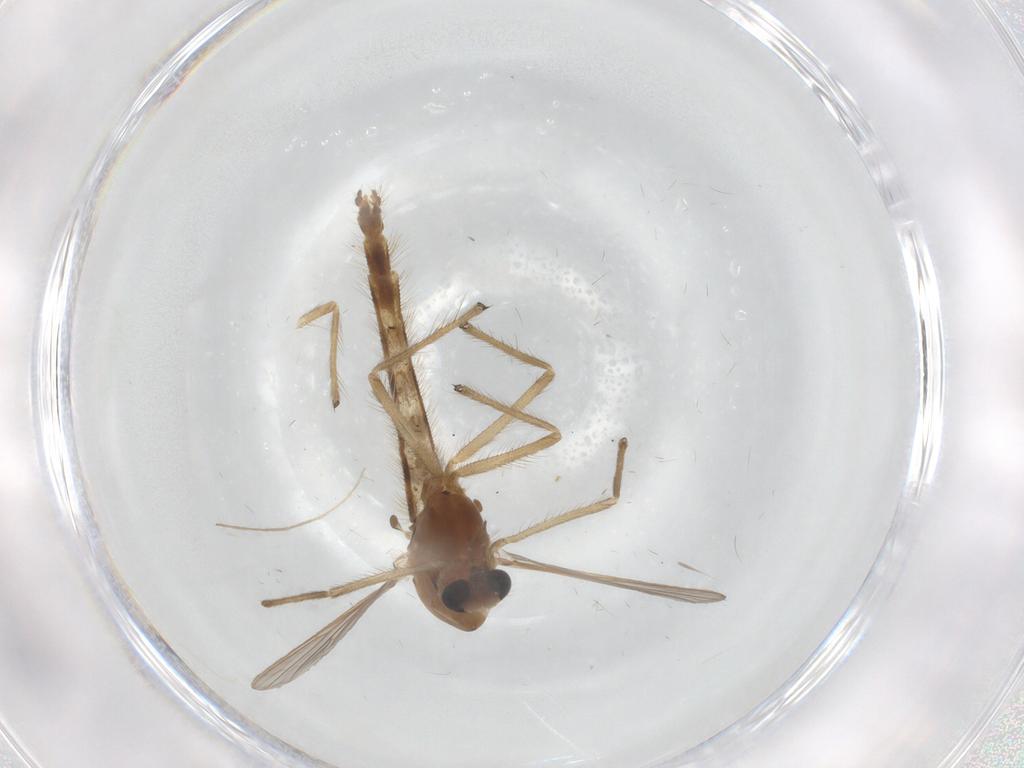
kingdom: Animalia
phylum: Arthropoda
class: Insecta
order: Diptera
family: Chironomidae
